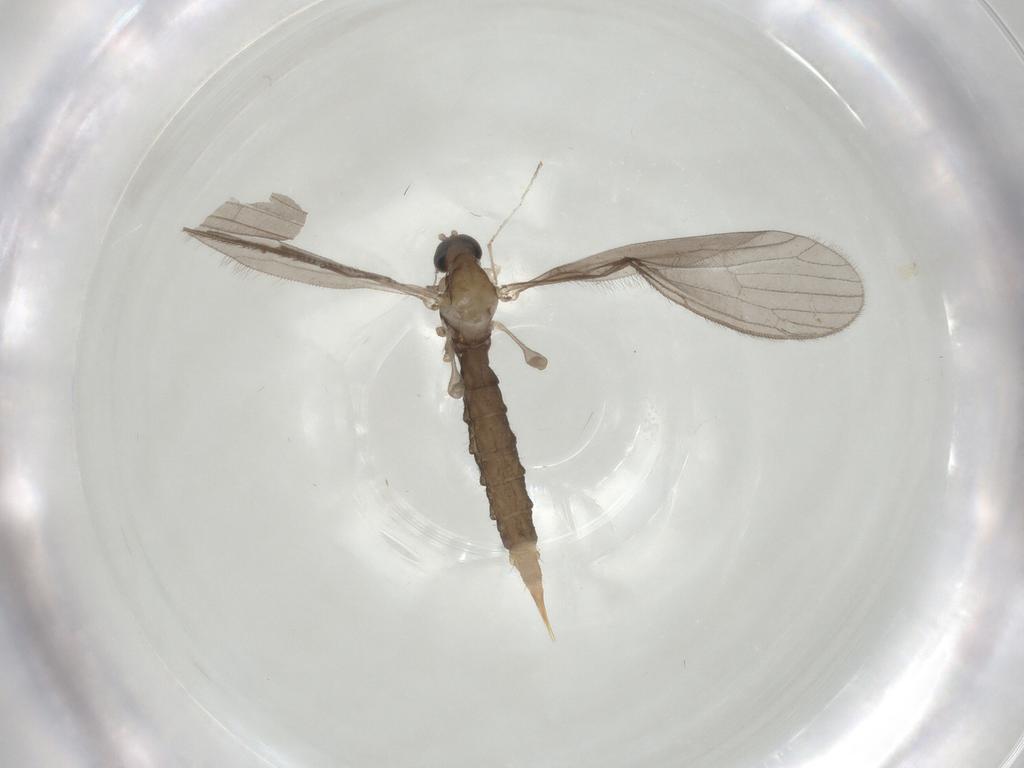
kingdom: Animalia
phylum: Arthropoda
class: Insecta
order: Diptera
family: Limoniidae
